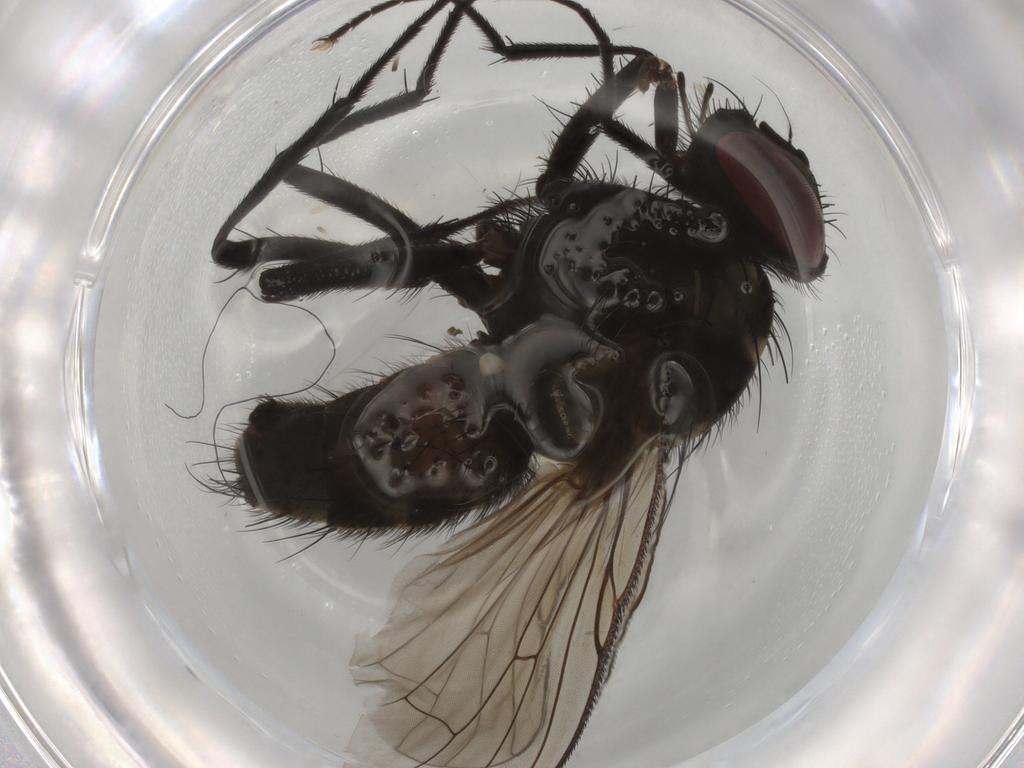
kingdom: Animalia
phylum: Arthropoda
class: Insecta
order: Diptera
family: Muscidae
